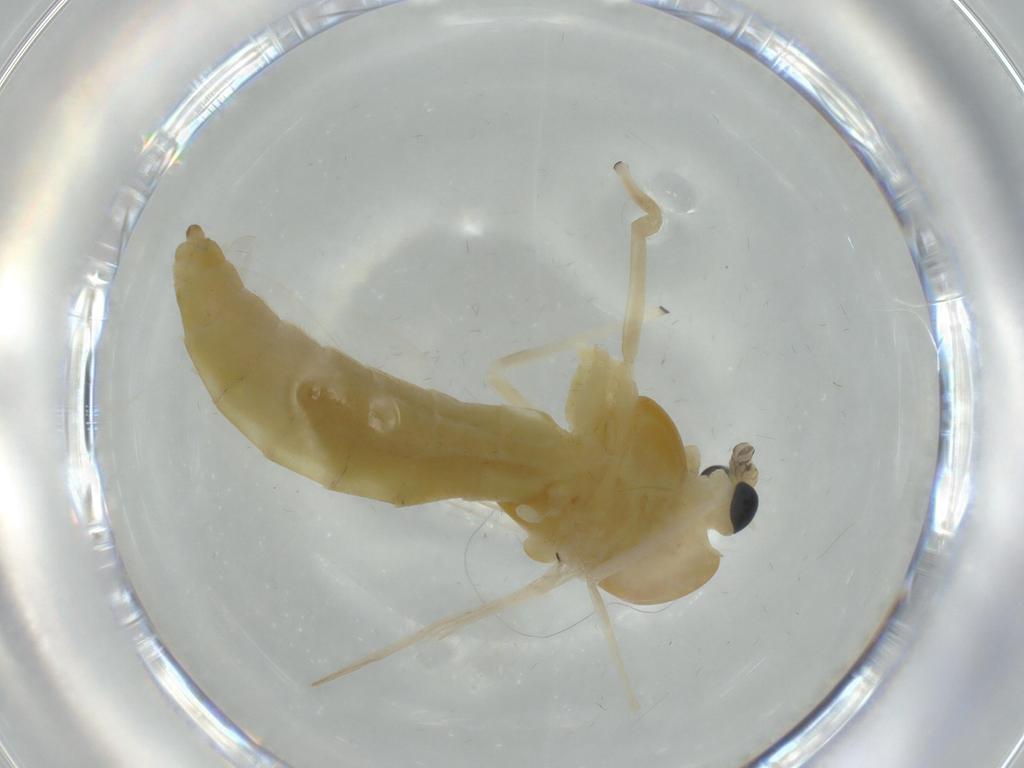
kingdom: Animalia
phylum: Arthropoda
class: Insecta
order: Diptera
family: Chironomidae
